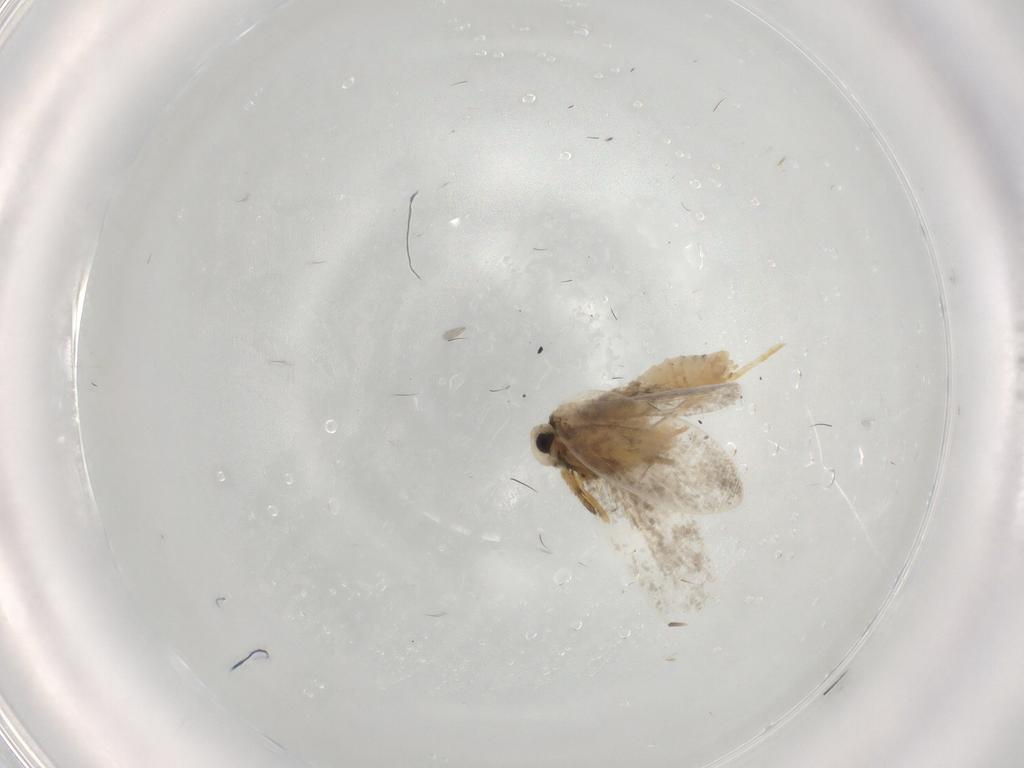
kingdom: Animalia
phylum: Arthropoda
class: Insecta
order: Lepidoptera
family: Psychidae
